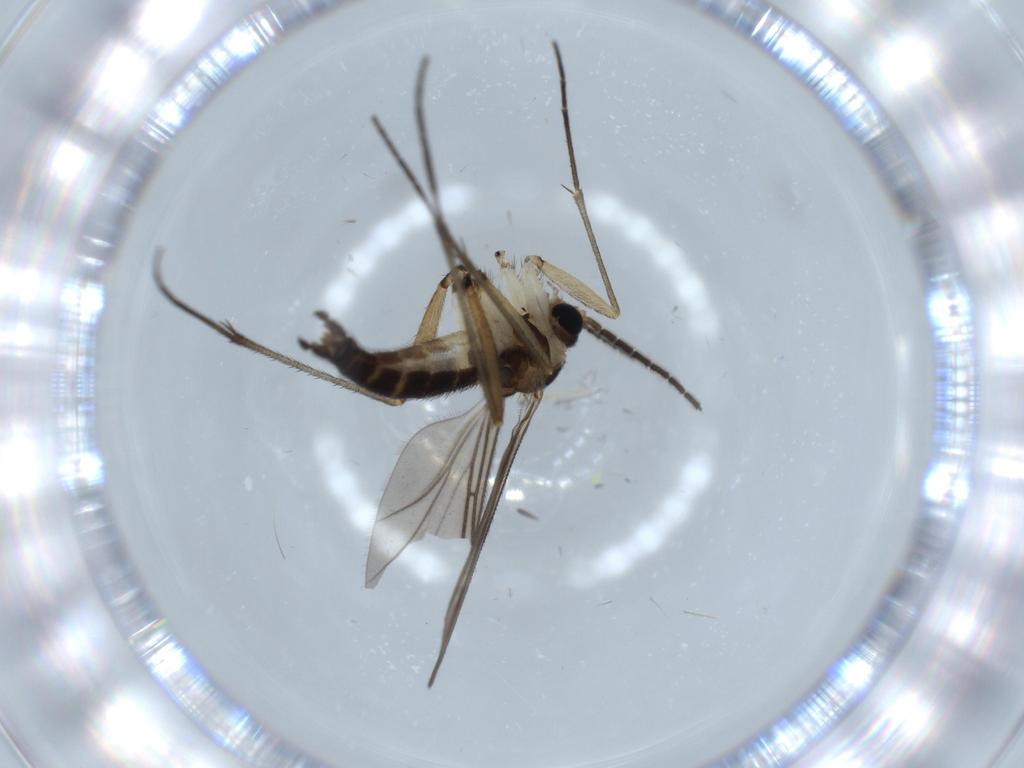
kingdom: Animalia
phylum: Arthropoda
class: Insecta
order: Diptera
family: Sciaridae
